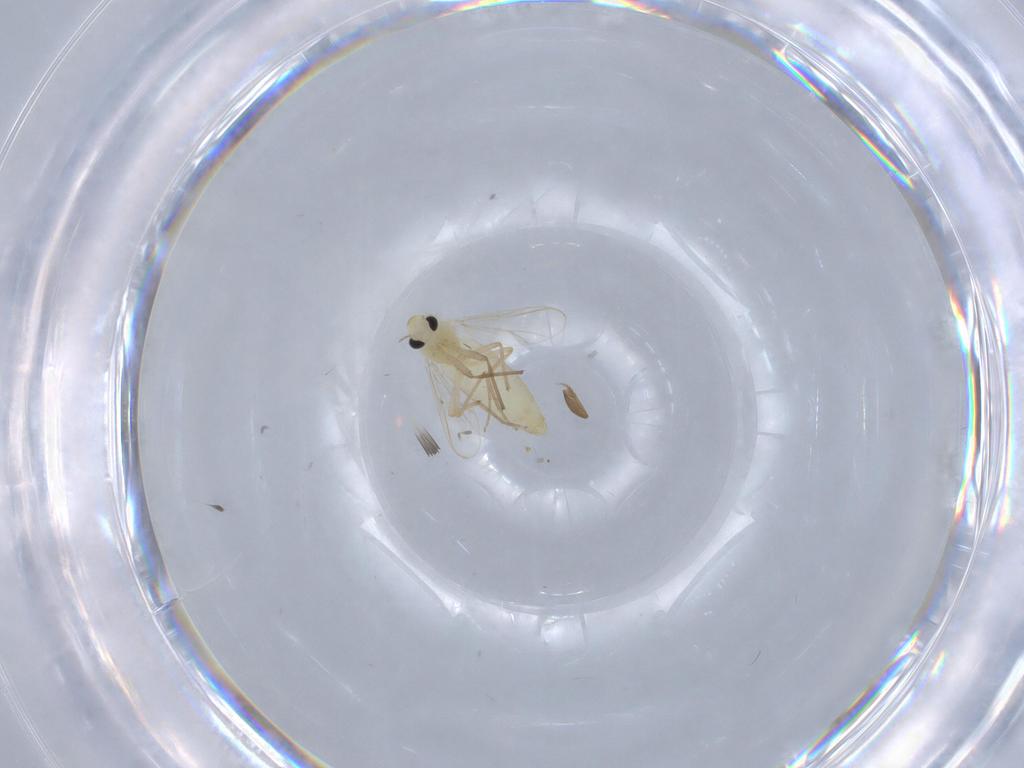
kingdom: Animalia
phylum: Arthropoda
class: Insecta
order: Diptera
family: Chironomidae
